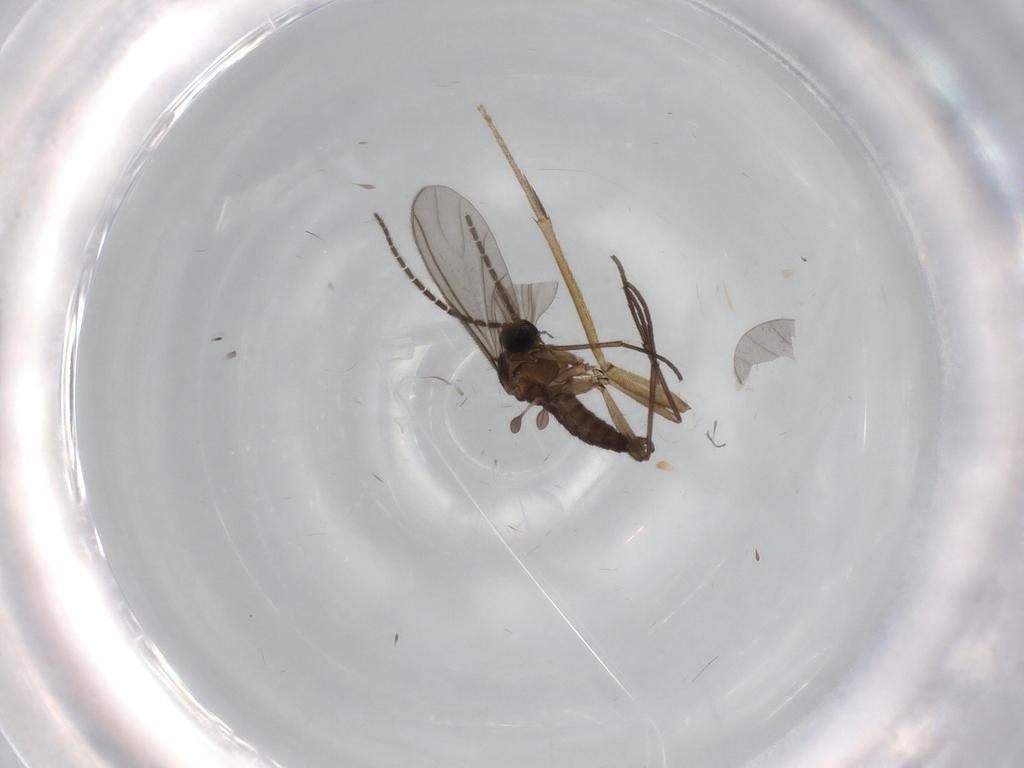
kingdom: Animalia
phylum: Arthropoda
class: Insecta
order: Diptera
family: Sciaridae
